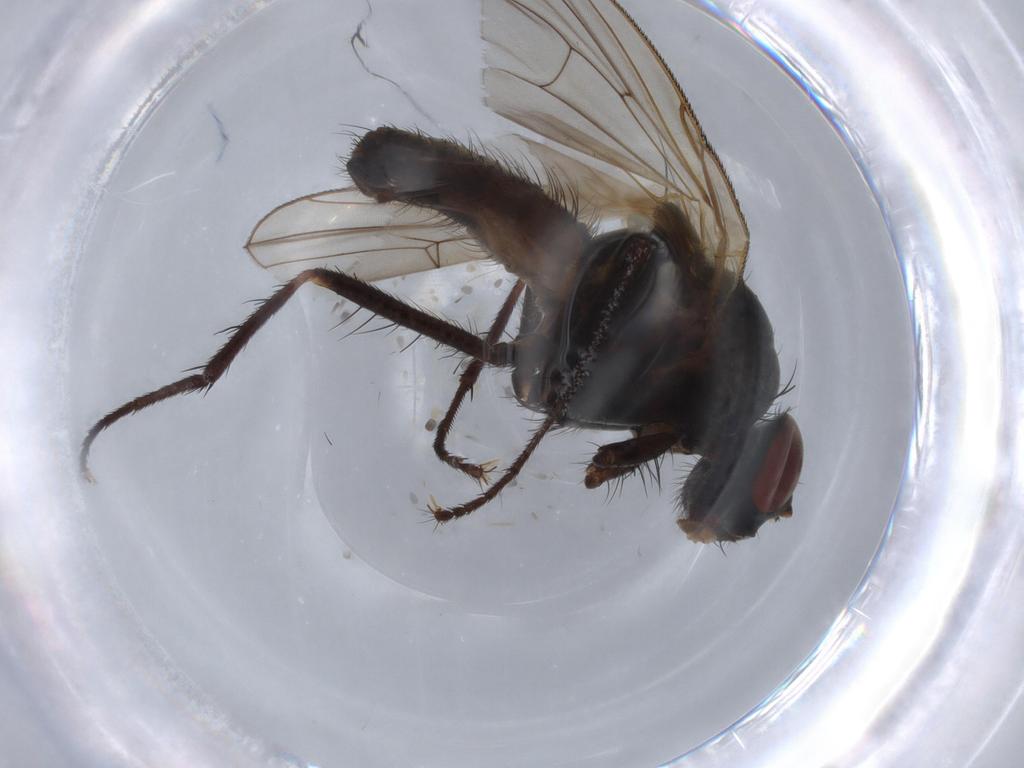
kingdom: Animalia
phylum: Arthropoda
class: Insecta
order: Diptera
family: Anthomyiidae
